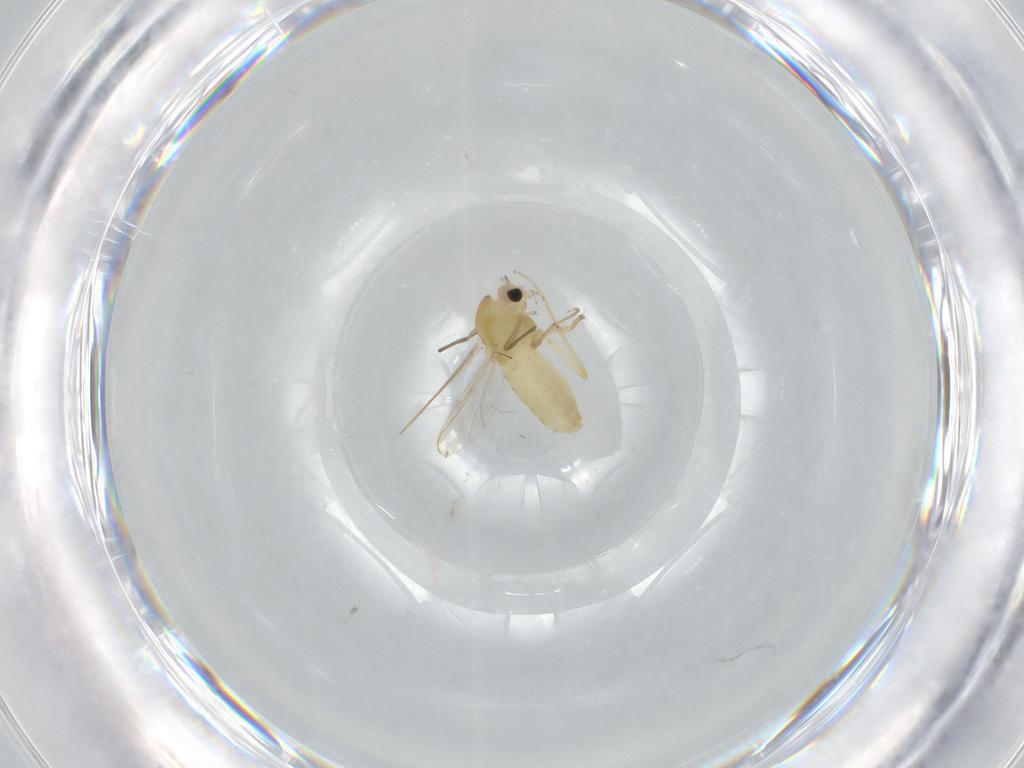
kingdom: Animalia
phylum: Arthropoda
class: Insecta
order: Diptera
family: Chironomidae
